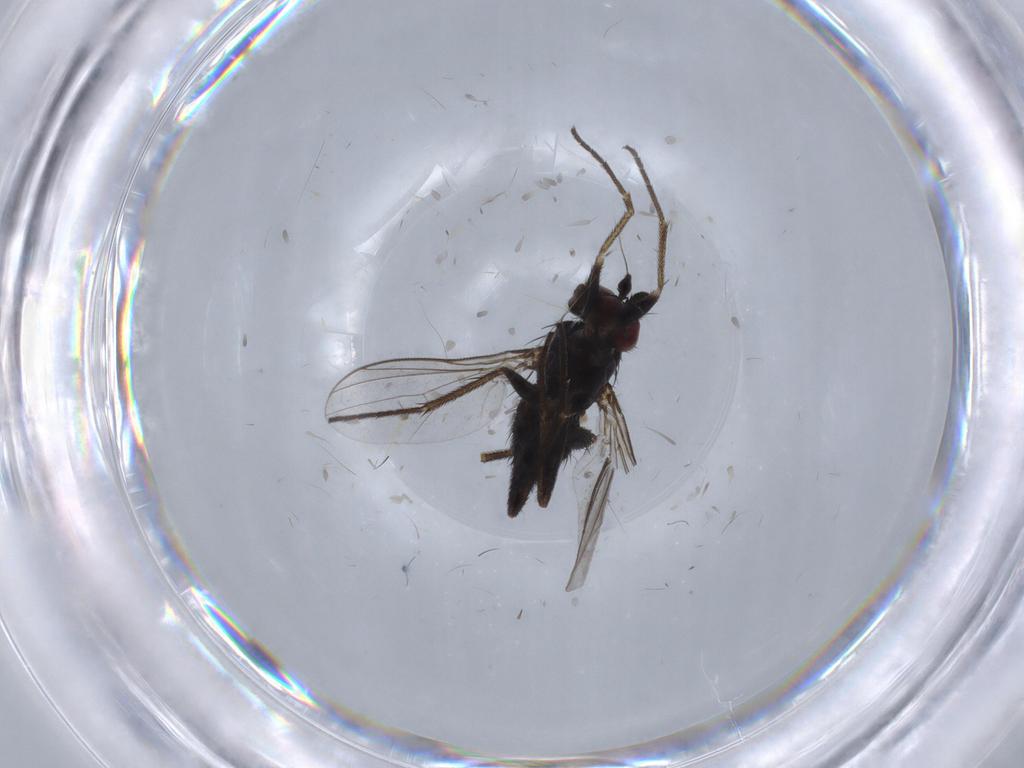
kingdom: Animalia
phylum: Arthropoda
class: Insecta
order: Diptera
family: Dolichopodidae
